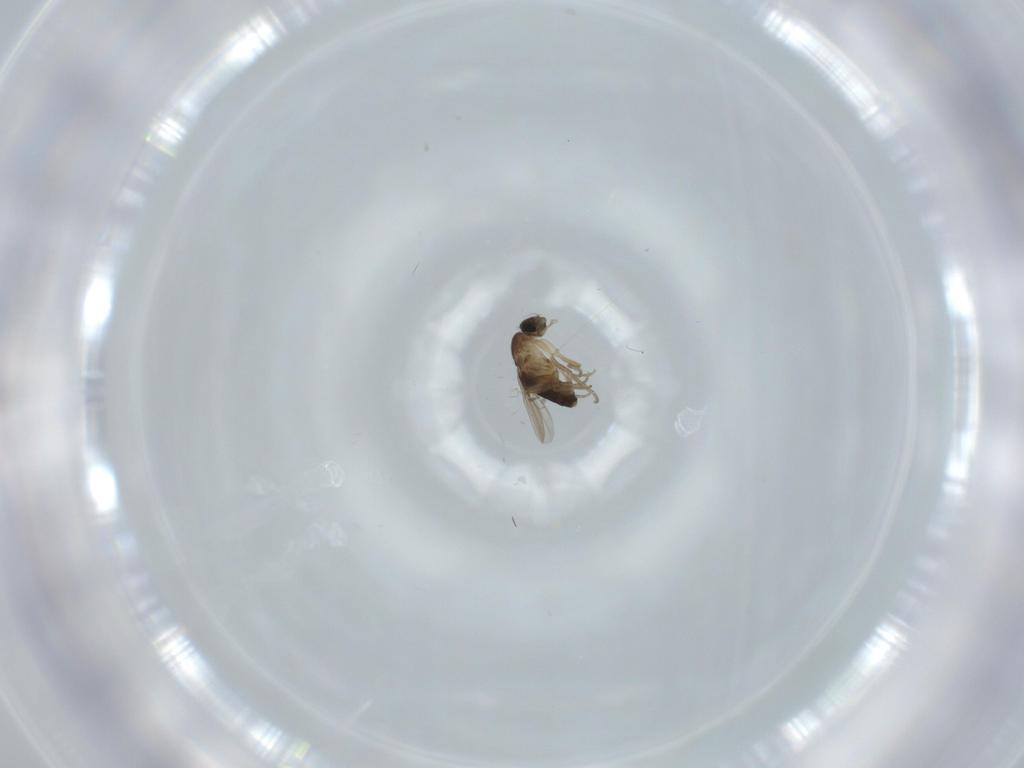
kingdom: Animalia
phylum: Arthropoda
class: Insecta
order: Diptera
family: Phoridae
